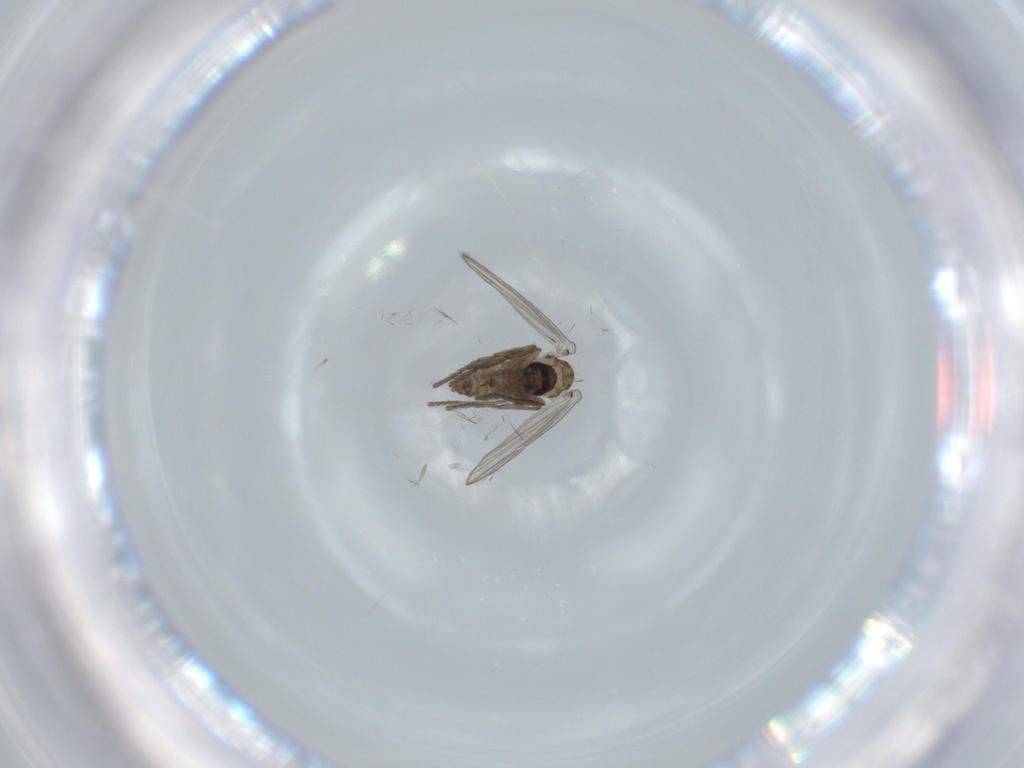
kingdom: Animalia
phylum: Arthropoda
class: Insecta
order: Diptera
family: Psychodidae
